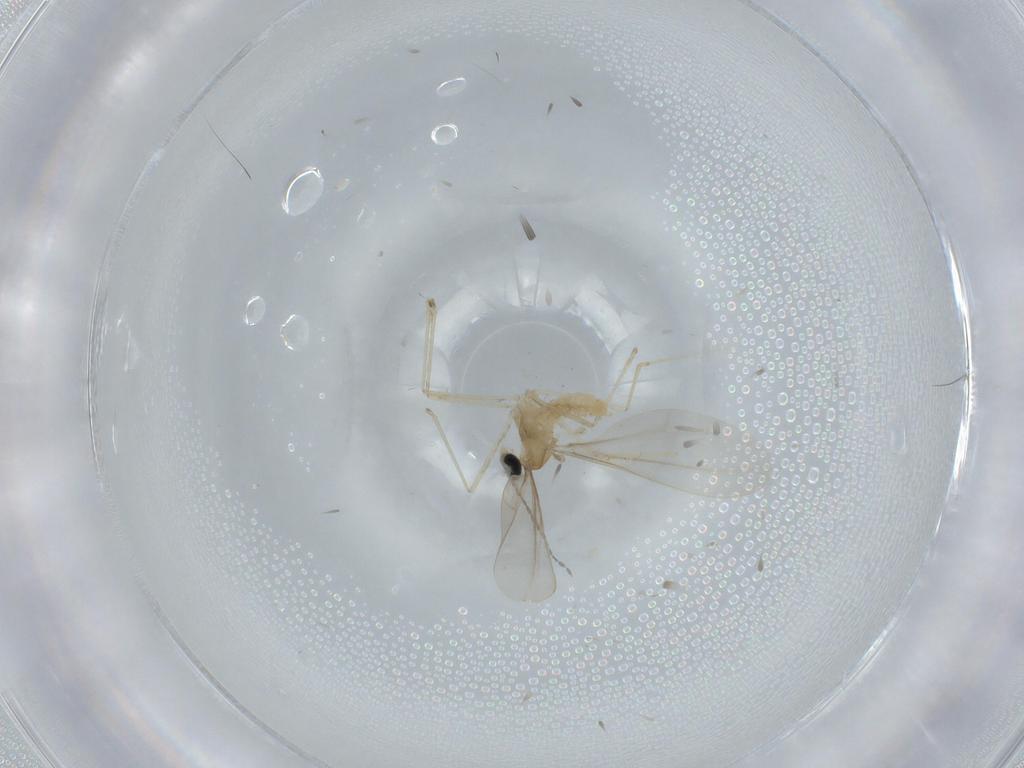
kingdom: Animalia
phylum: Arthropoda
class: Insecta
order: Diptera
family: Cecidomyiidae
